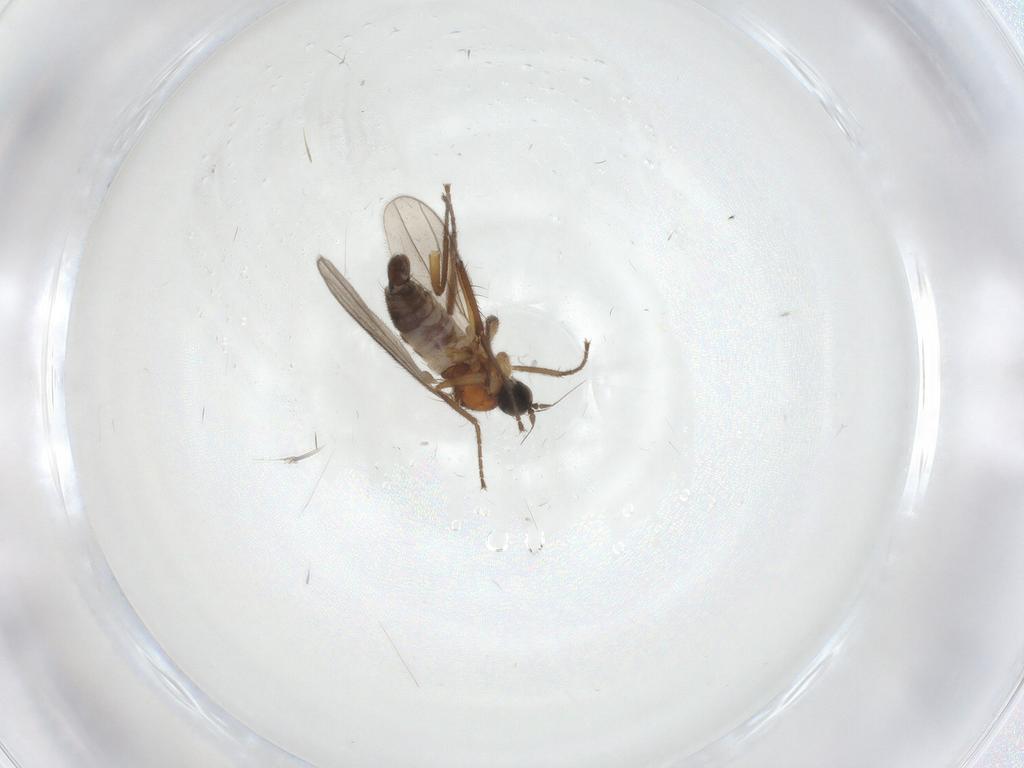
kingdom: Animalia
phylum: Arthropoda
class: Insecta
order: Diptera
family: Hybotidae
